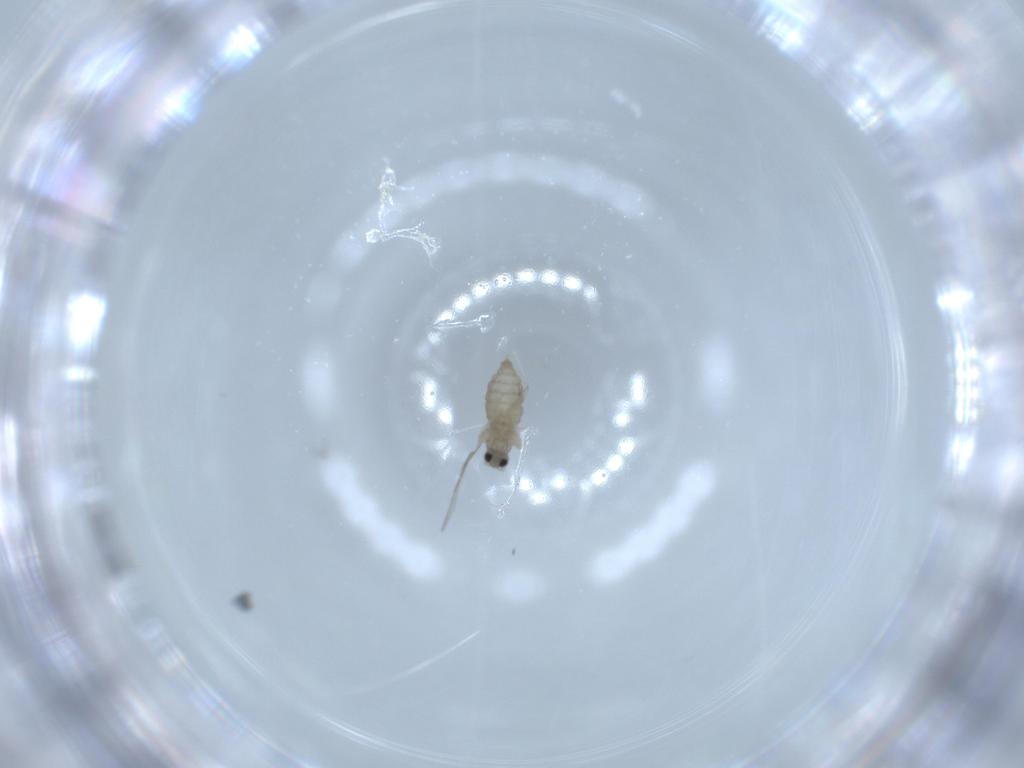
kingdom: Animalia
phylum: Arthropoda
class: Insecta
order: Diptera
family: Cecidomyiidae
